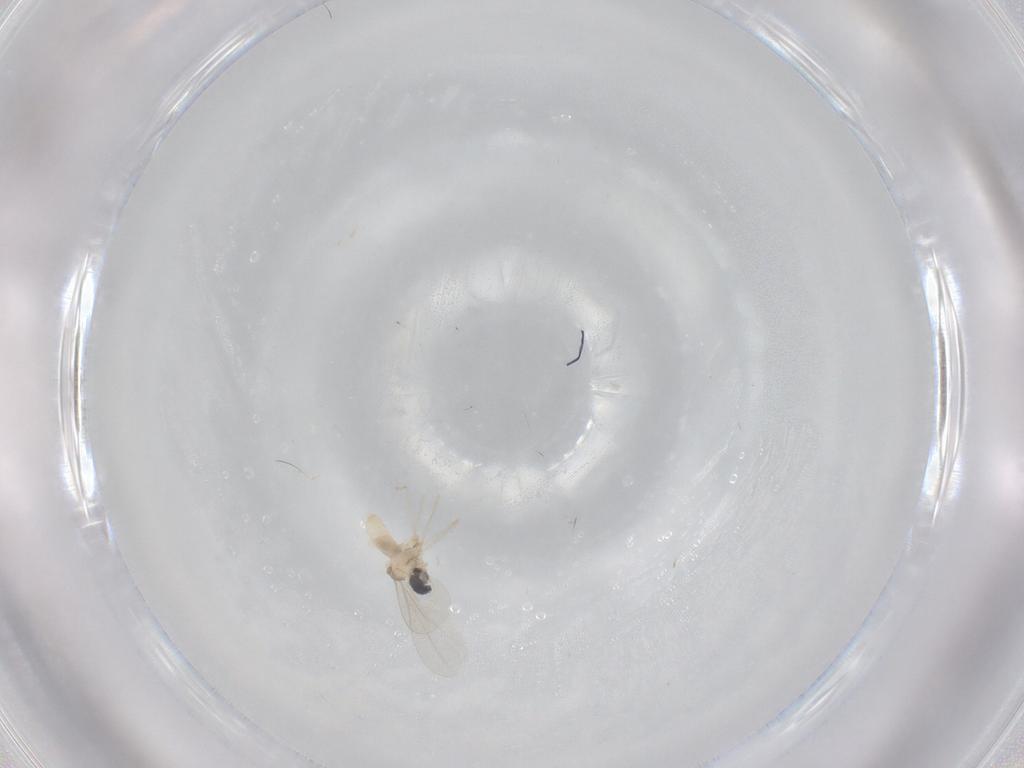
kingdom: Animalia
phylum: Arthropoda
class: Insecta
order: Diptera
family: Cecidomyiidae
